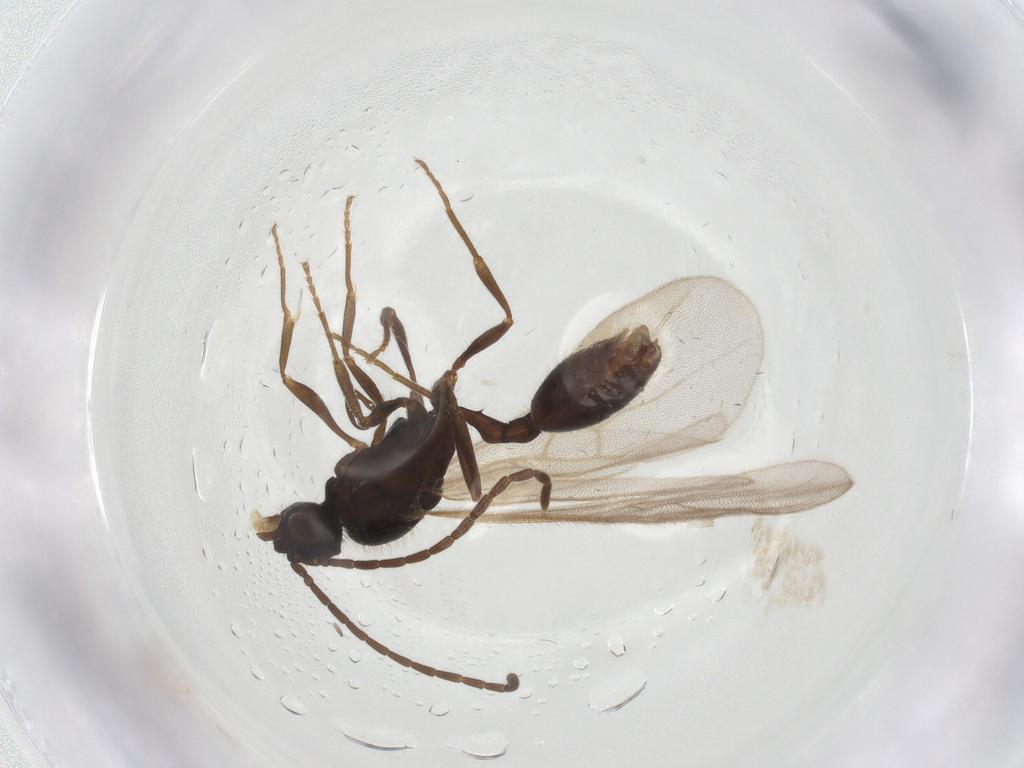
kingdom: Animalia
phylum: Arthropoda
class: Insecta
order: Hymenoptera
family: Formicidae
